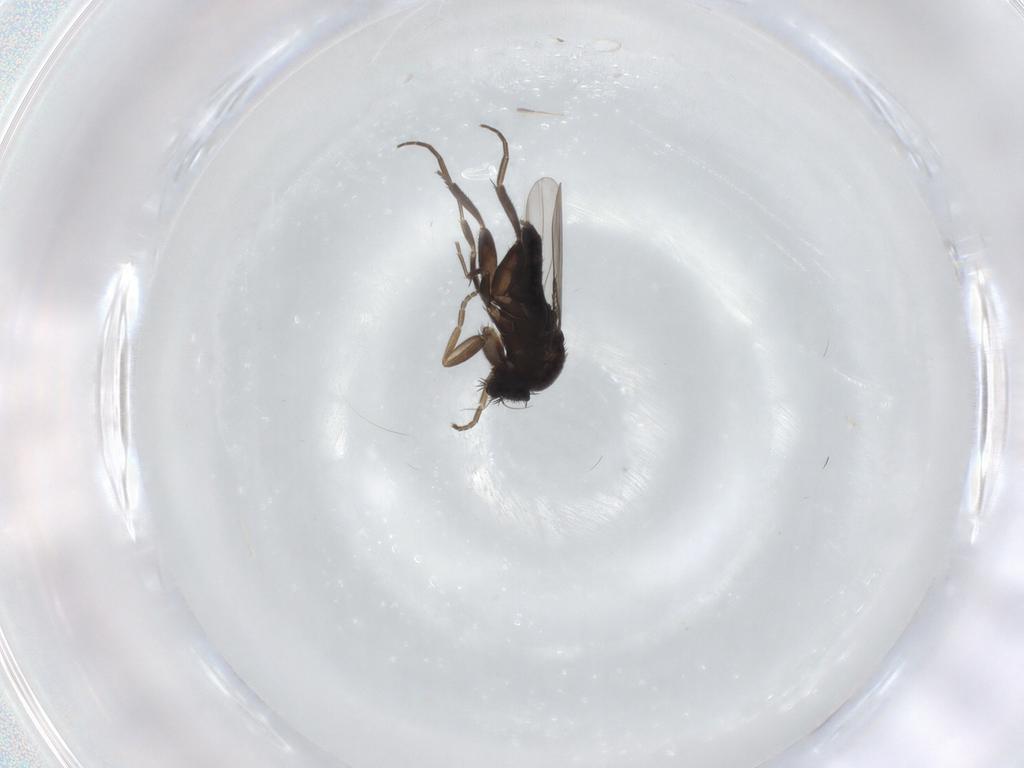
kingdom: Animalia
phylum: Arthropoda
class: Insecta
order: Diptera
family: Phoridae
